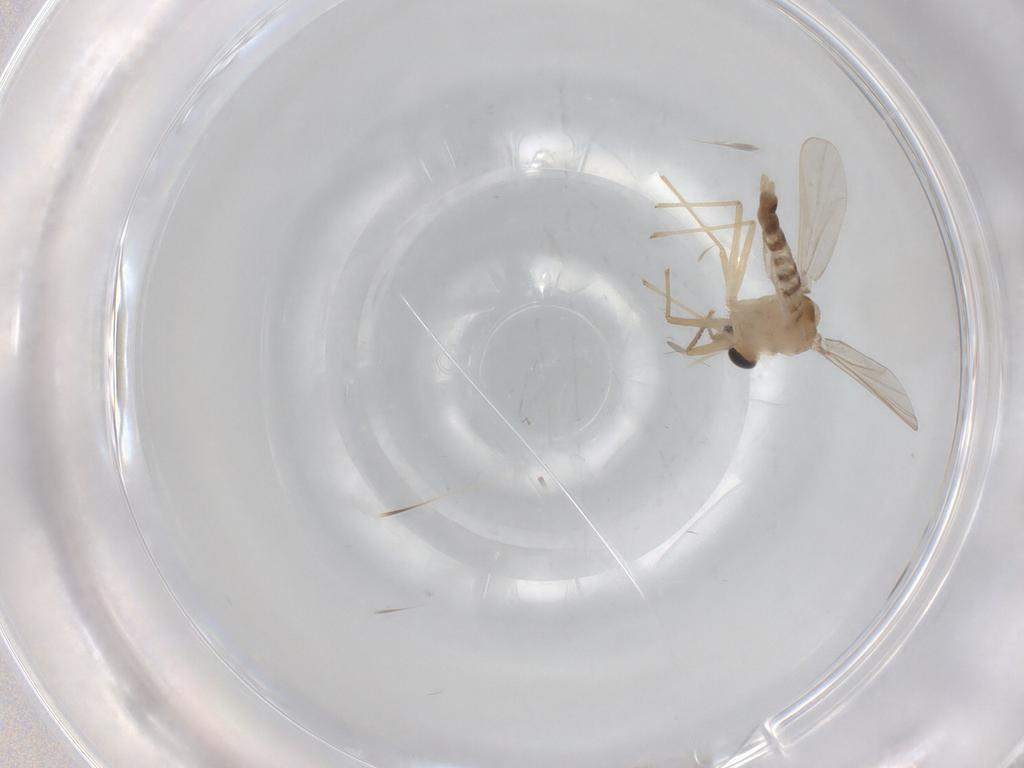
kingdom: Animalia
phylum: Arthropoda
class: Insecta
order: Diptera
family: Chironomidae
